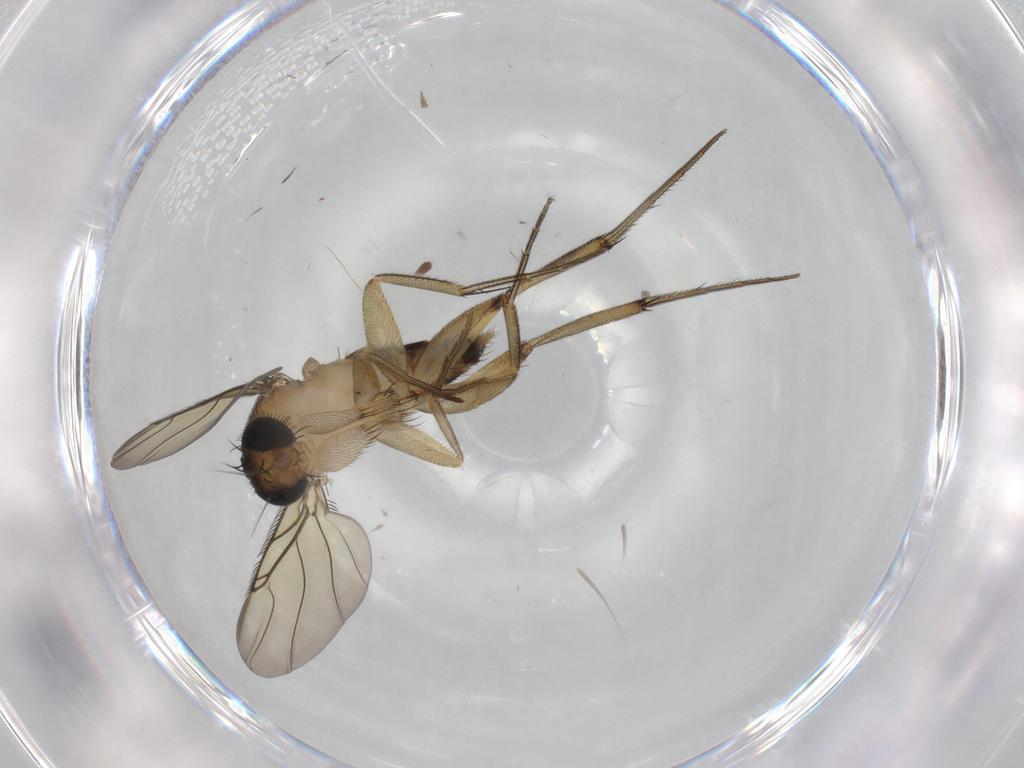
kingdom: Animalia
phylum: Arthropoda
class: Insecta
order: Diptera
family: Phoridae
